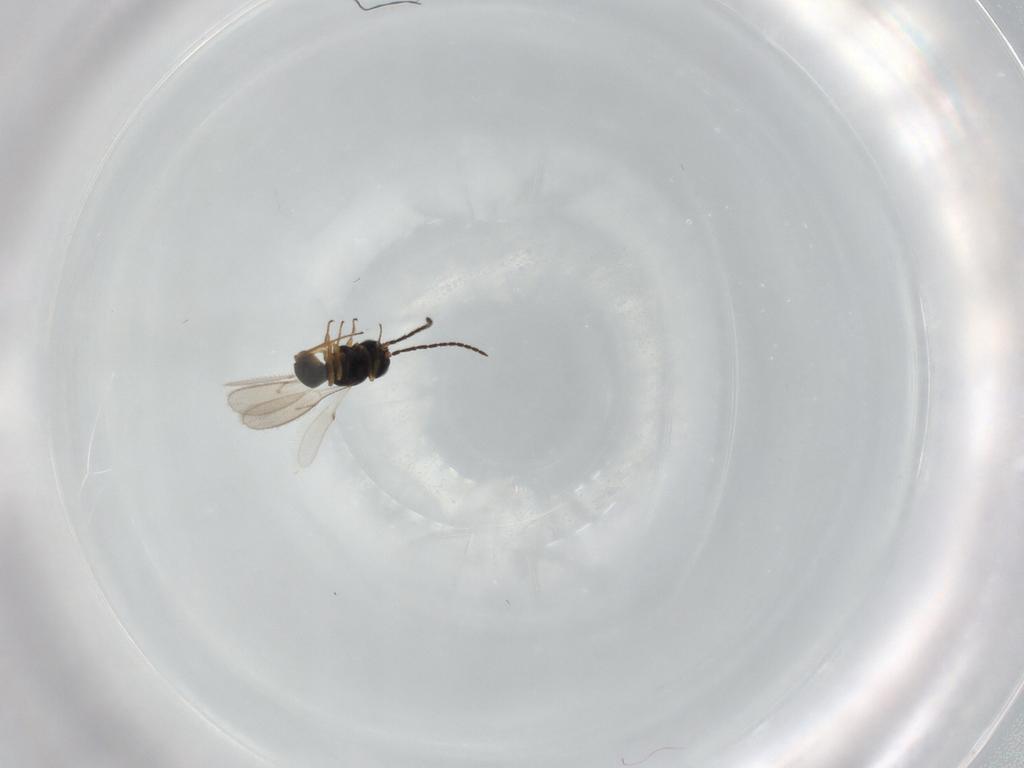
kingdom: Animalia
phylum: Arthropoda
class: Insecta
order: Hymenoptera
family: Scelionidae
